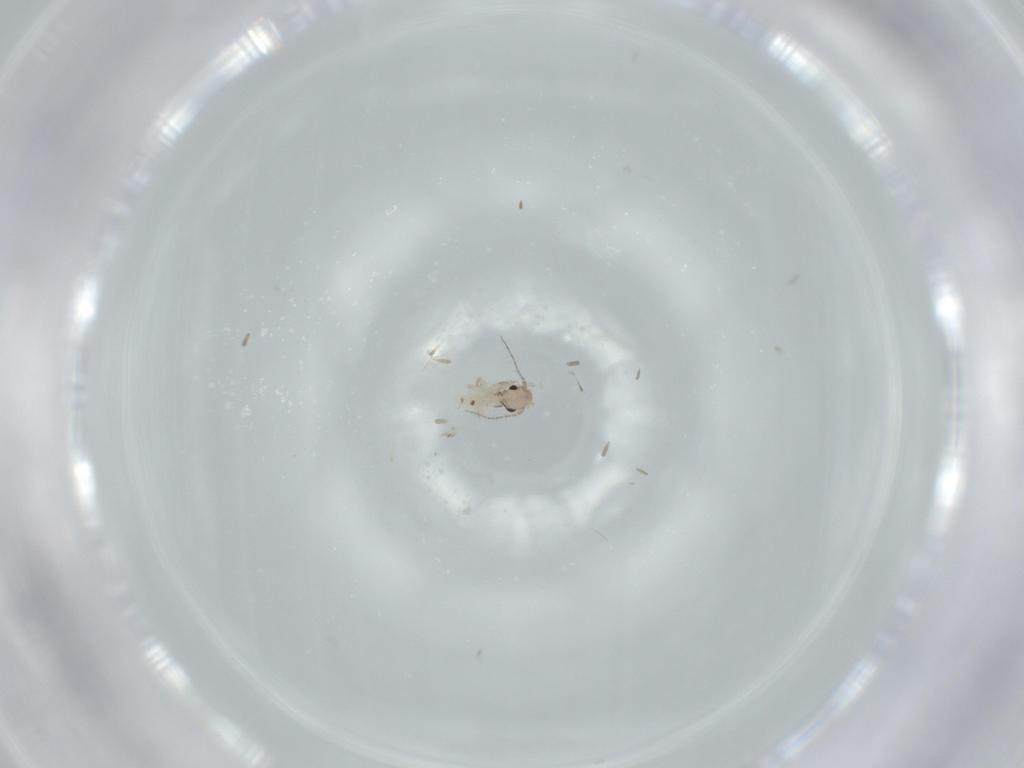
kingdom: Animalia
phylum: Arthropoda
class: Insecta
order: Psocodea
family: Lepidopsocidae
